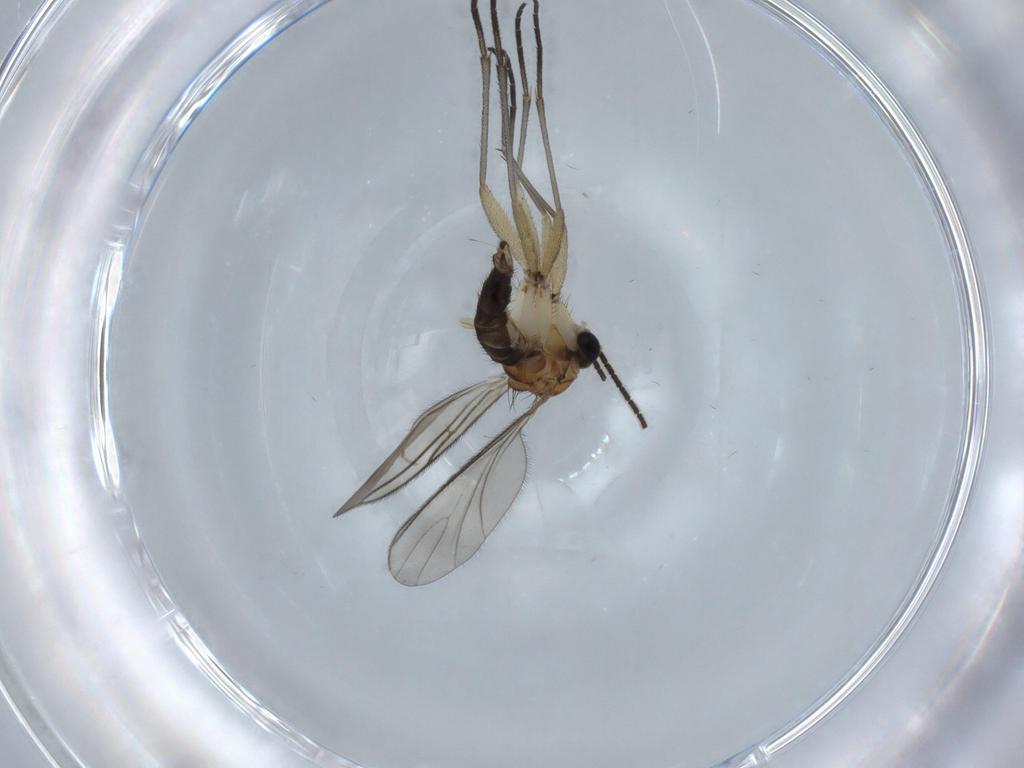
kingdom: Animalia
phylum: Arthropoda
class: Insecta
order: Diptera
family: Sciaridae
